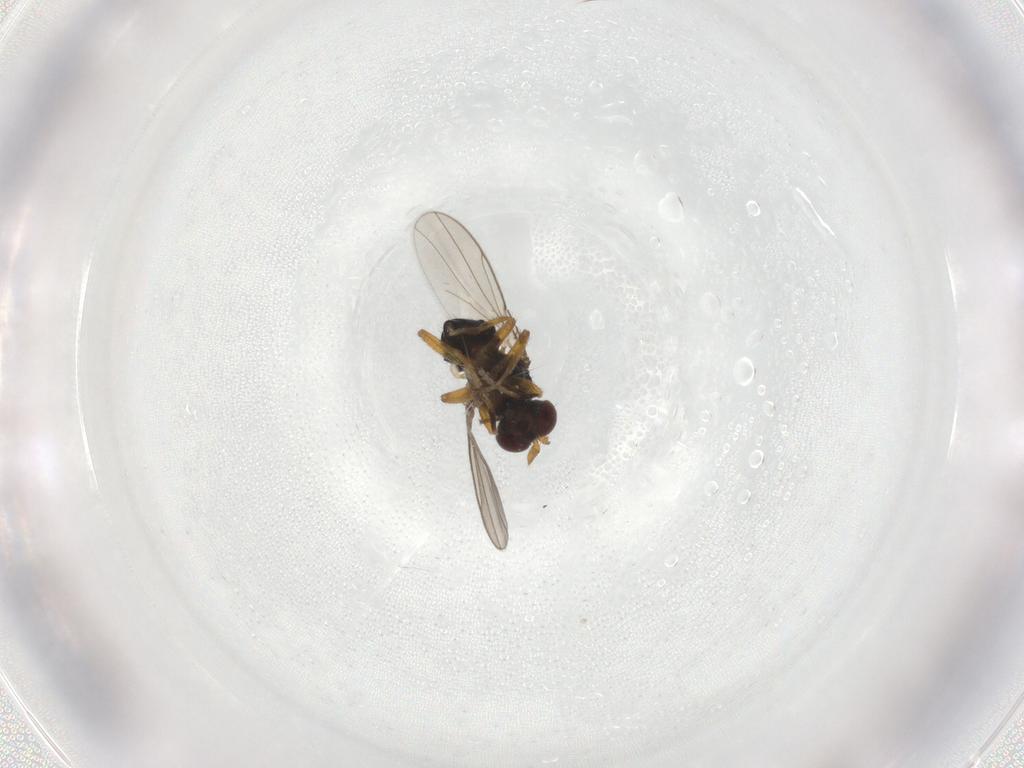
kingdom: Animalia
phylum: Arthropoda
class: Insecta
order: Diptera
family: Ephydridae
